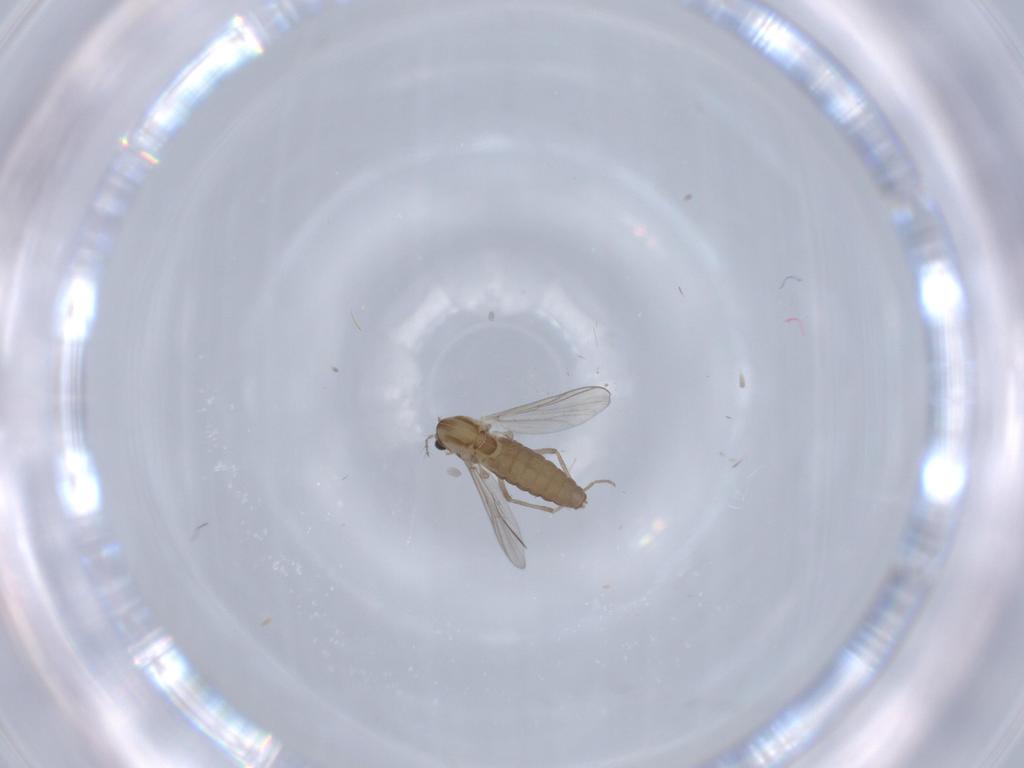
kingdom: Animalia
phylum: Arthropoda
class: Insecta
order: Diptera
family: Chironomidae
